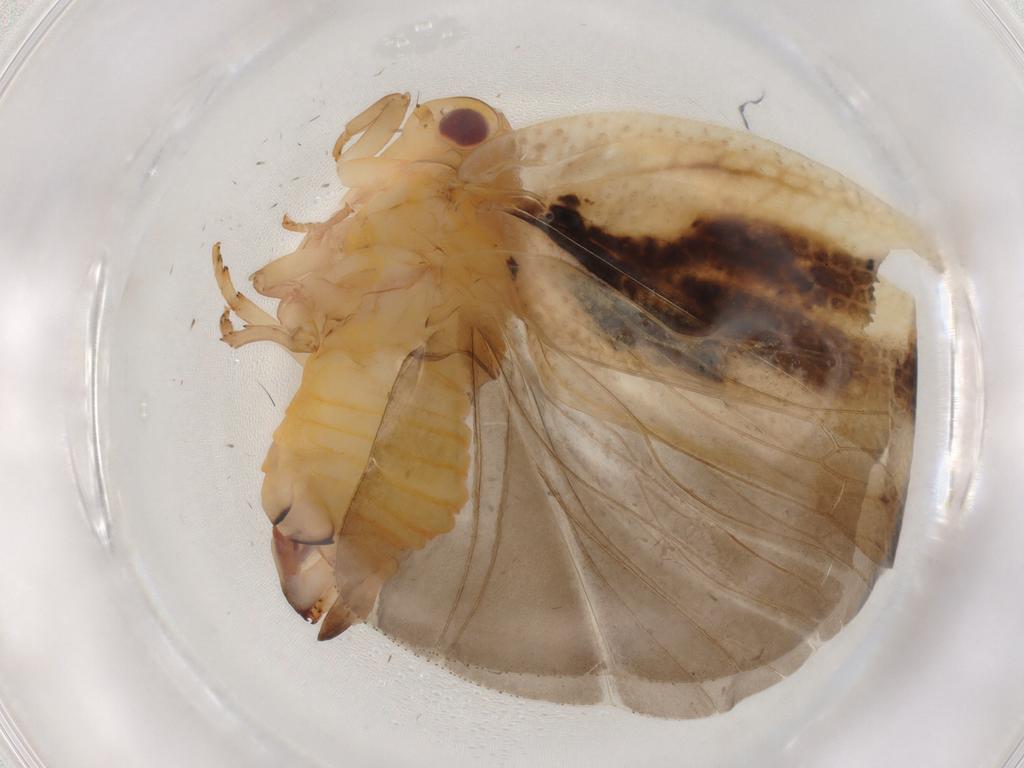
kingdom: Animalia
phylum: Arthropoda
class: Insecta
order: Hemiptera
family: Flatidae
